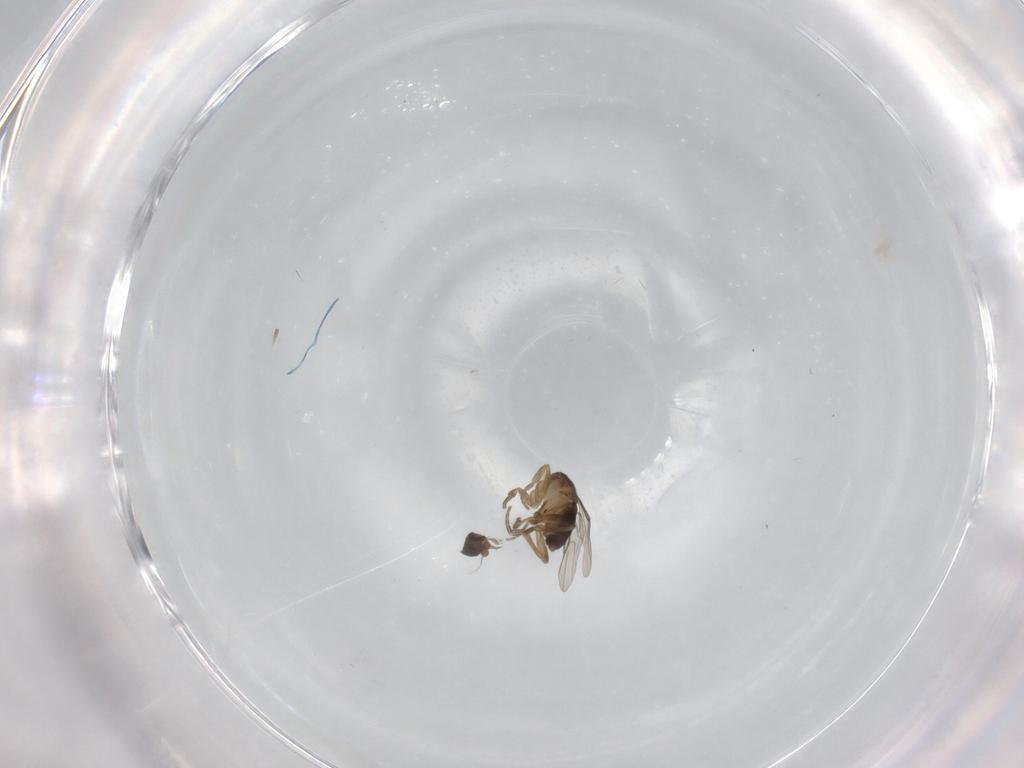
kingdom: Animalia
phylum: Arthropoda
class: Insecta
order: Diptera
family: Phoridae
